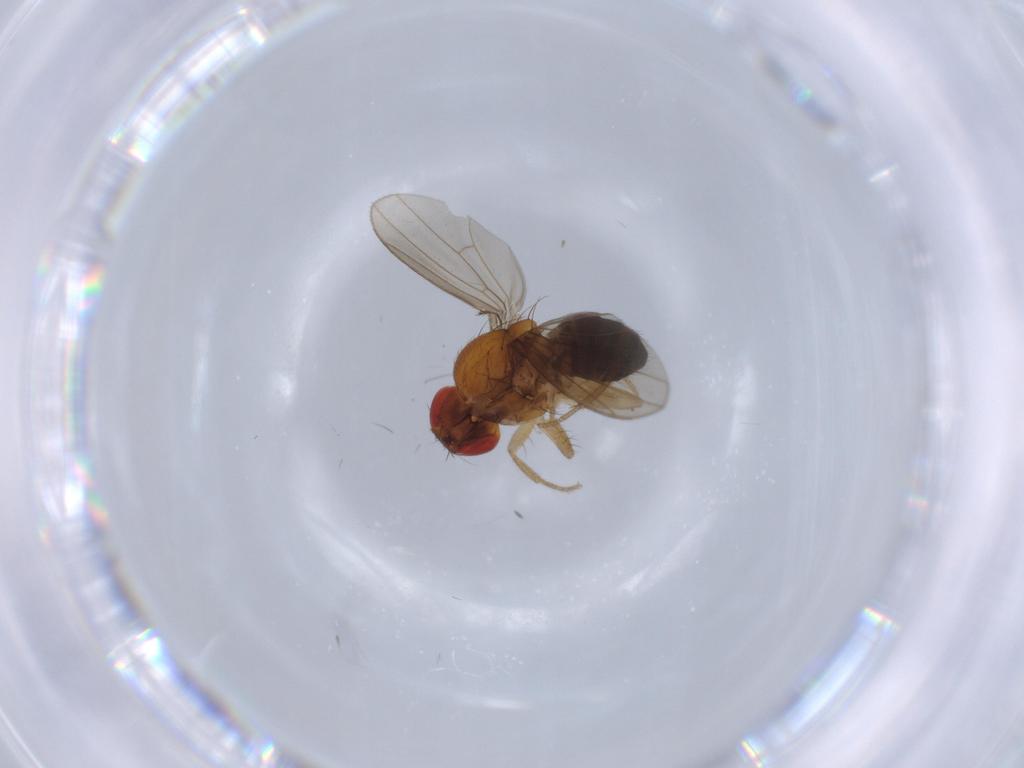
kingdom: Animalia
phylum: Arthropoda
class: Insecta
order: Diptera
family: Drosophilidae
